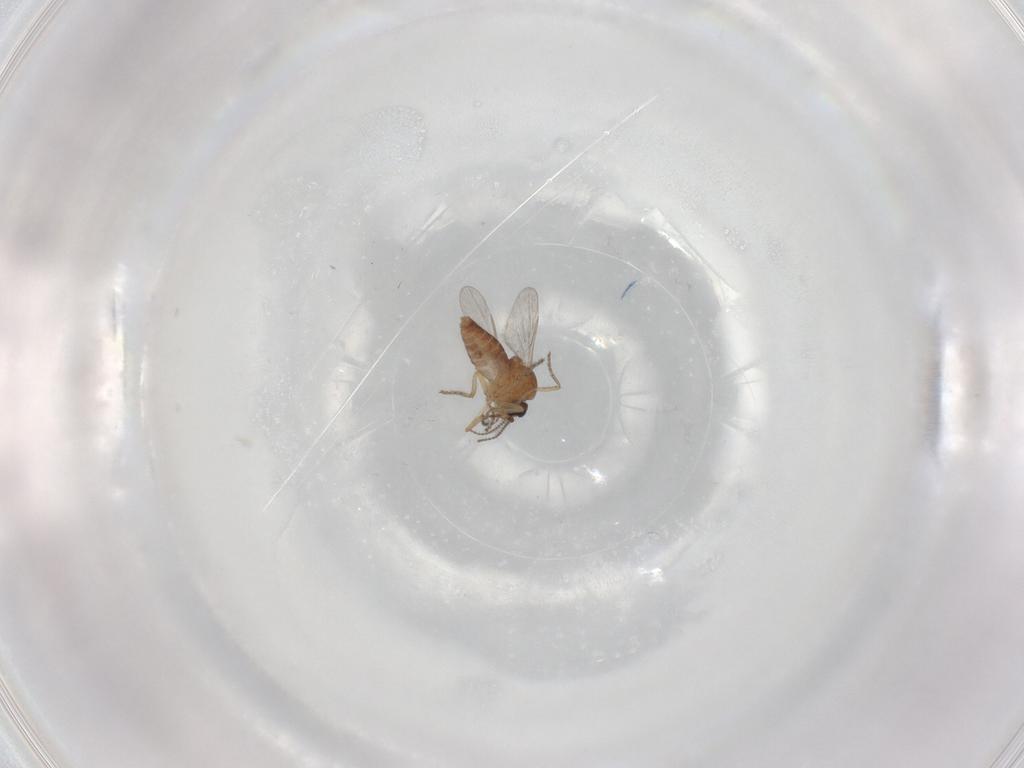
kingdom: Animalia
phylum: Arthropoda
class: Insecta
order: Diptera
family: Ceratopogonidae
